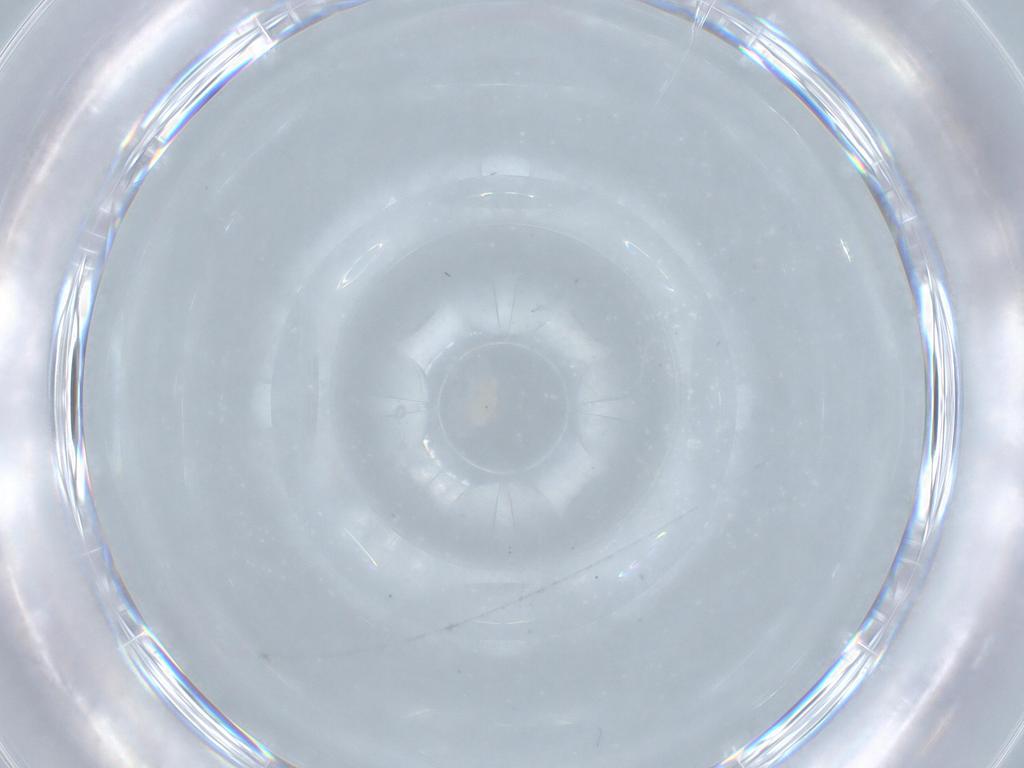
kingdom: Animalia
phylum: Arthropoda
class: Arachnida
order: Trombidiformes
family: Eupodidae
